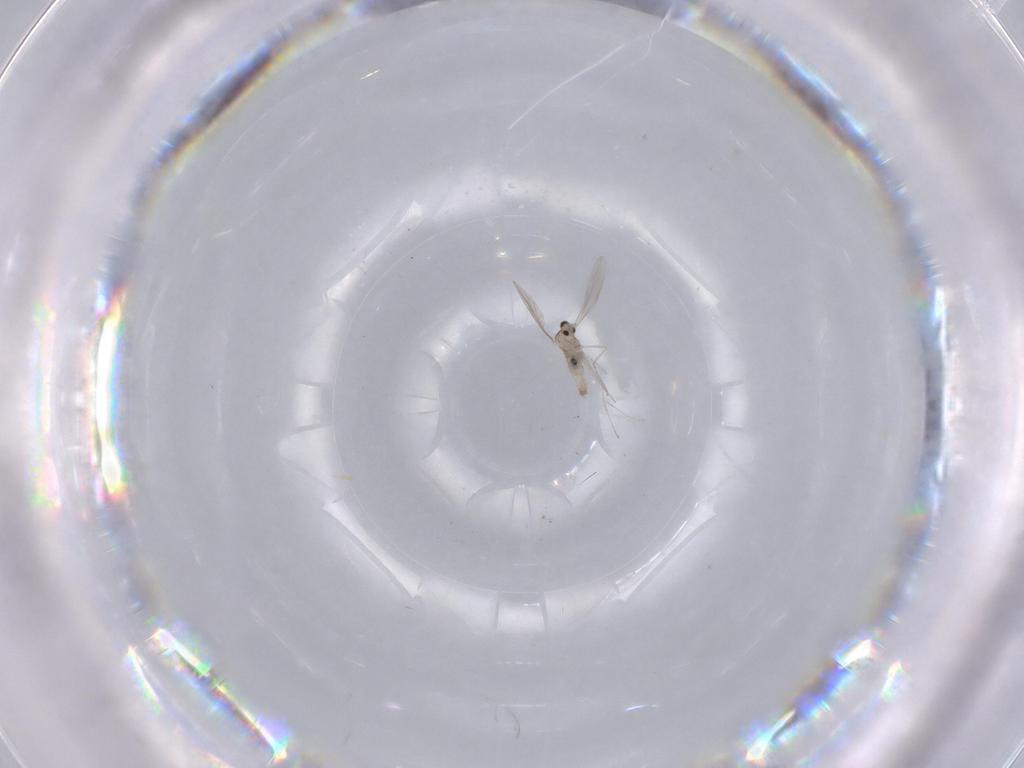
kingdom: Animalia
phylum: Arthropoda
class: Insecta
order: Diptera
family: Cecidomyiidae
